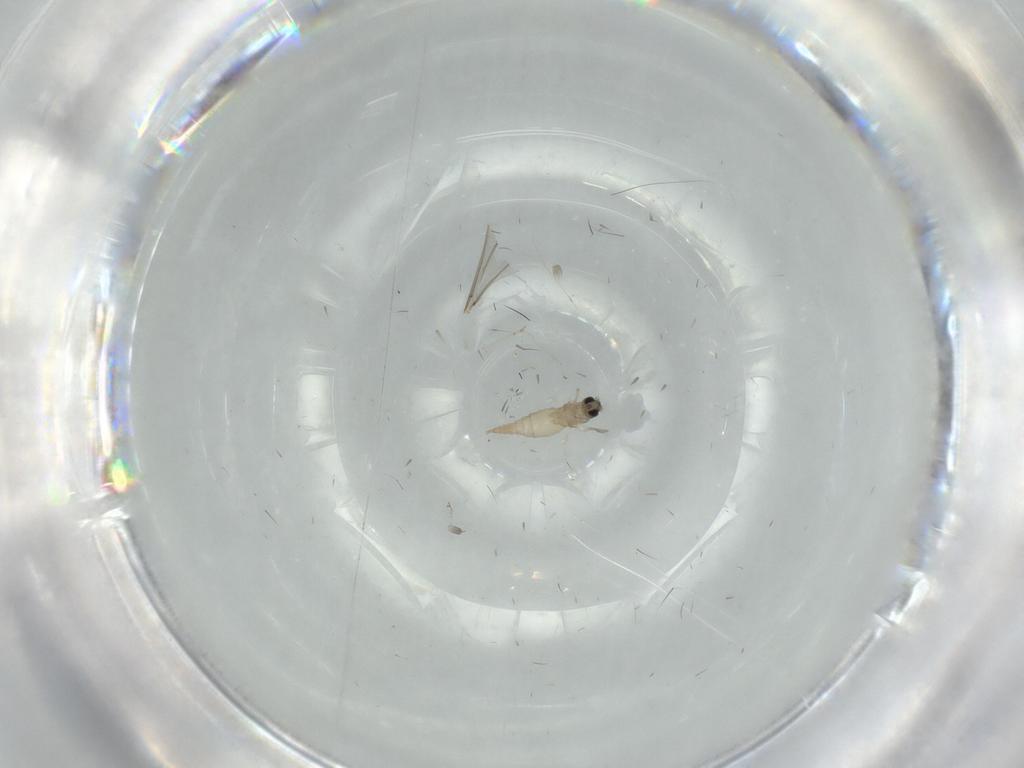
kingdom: Animalia
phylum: Arthropoda
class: Insecta
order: Diptera
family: Cecidomyiidae
